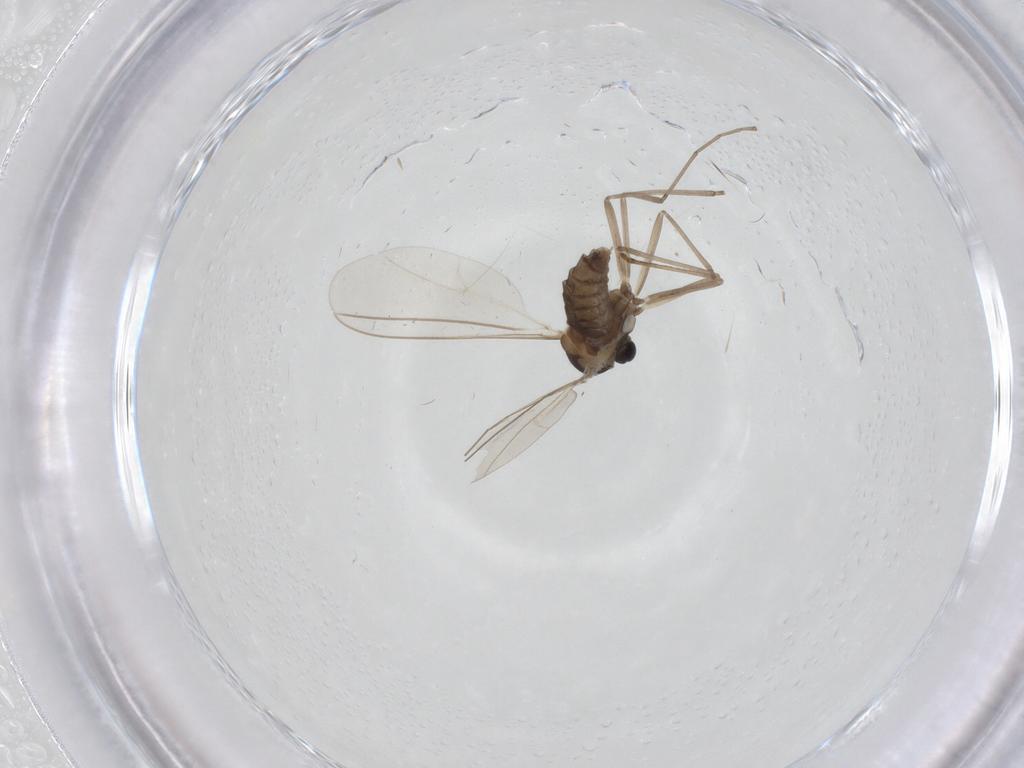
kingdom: Animalia
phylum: Arthropoda
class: Insecta
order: Diptera
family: Cecidomyiidae
